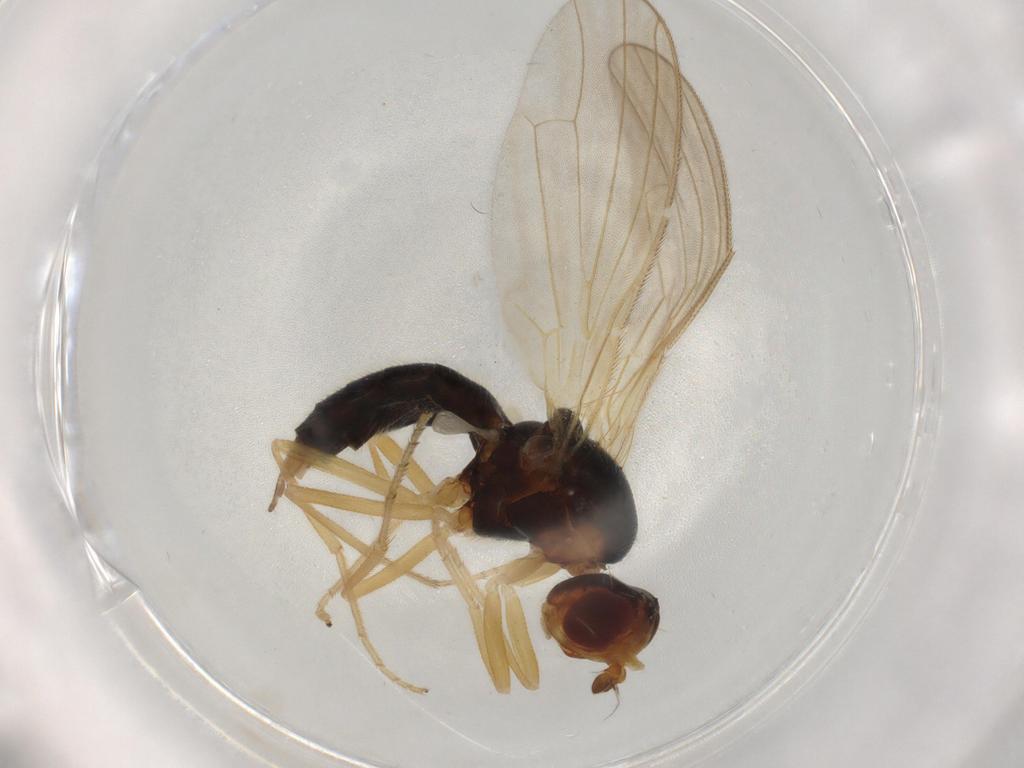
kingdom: Animalia
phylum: Arthropoda
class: Insecta
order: Diptera
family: Psilidae
